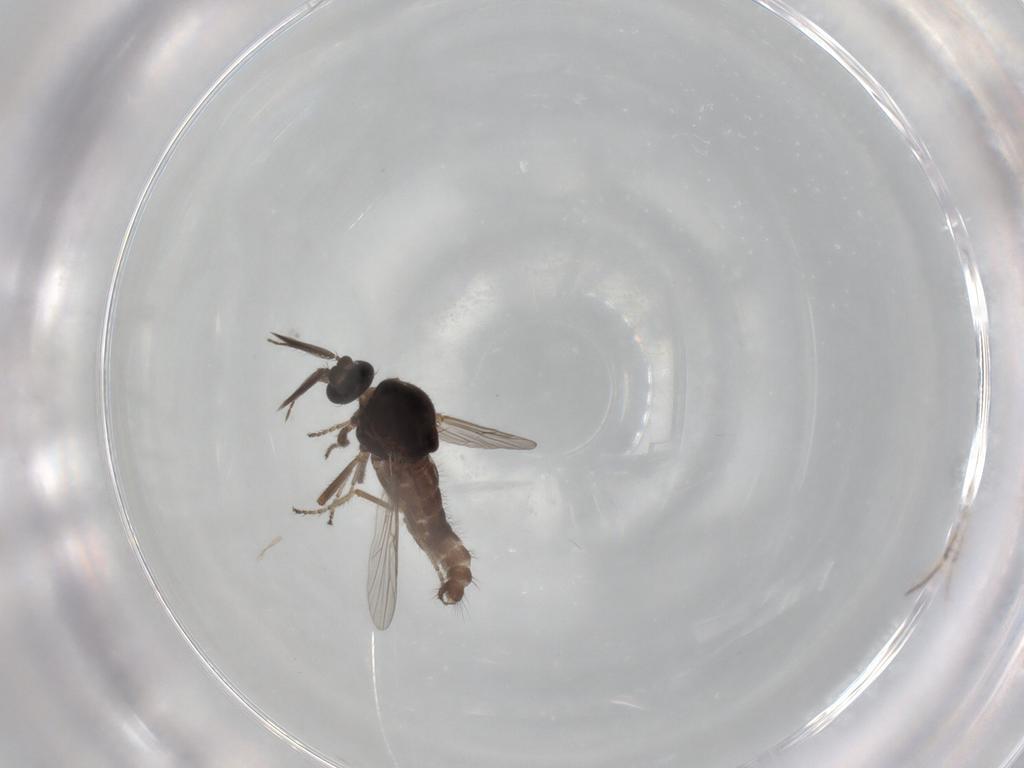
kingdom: Animalia
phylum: Arthropoda
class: Insecta
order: Diptera
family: Ceratopogonidae
